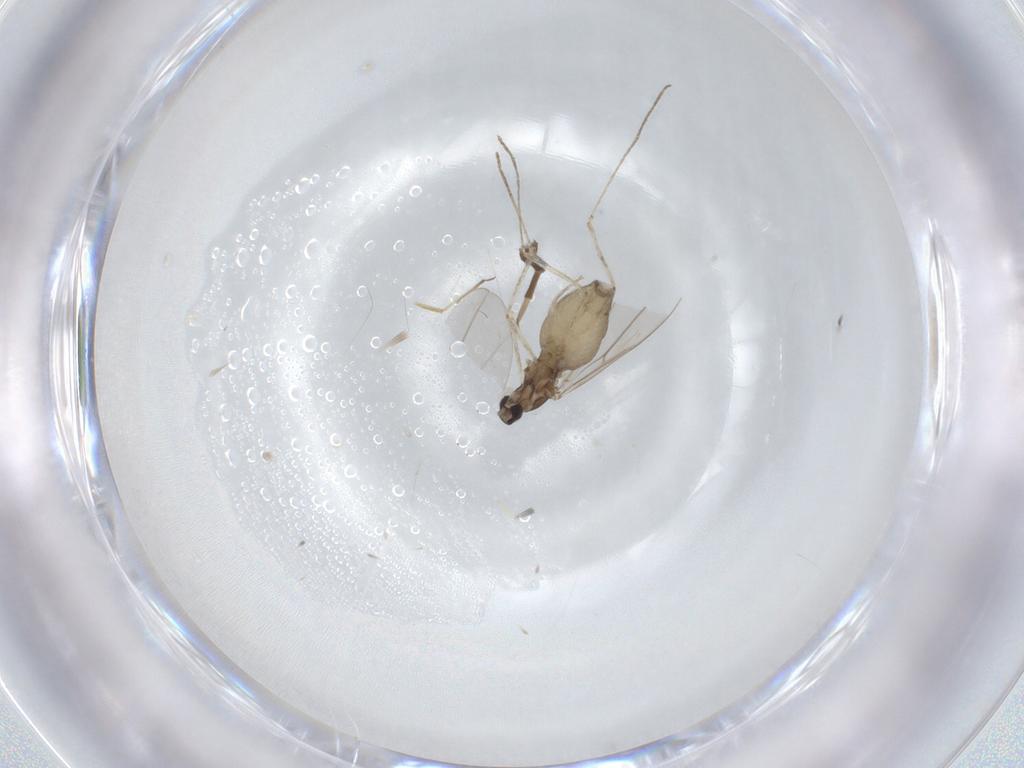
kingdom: Animalia
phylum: Arthropoda
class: Insecta
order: Diptera
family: Cecidomyiidae
